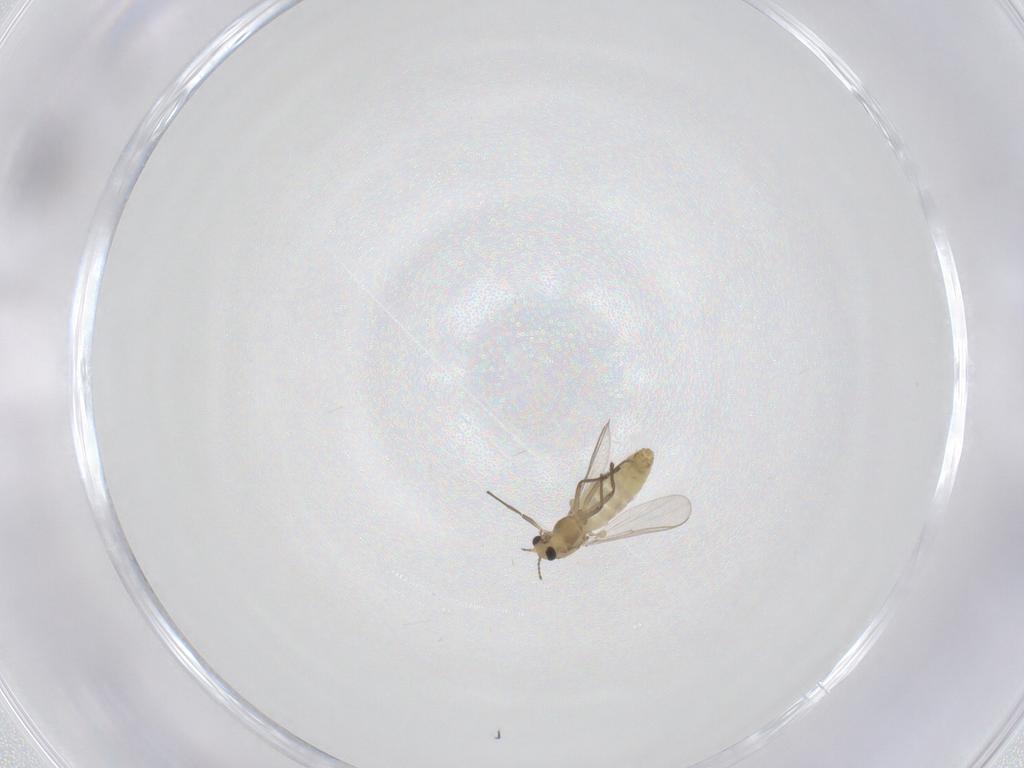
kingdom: Animalia
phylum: Arthropoda
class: Insecta
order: Diptera
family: Chironomidae
